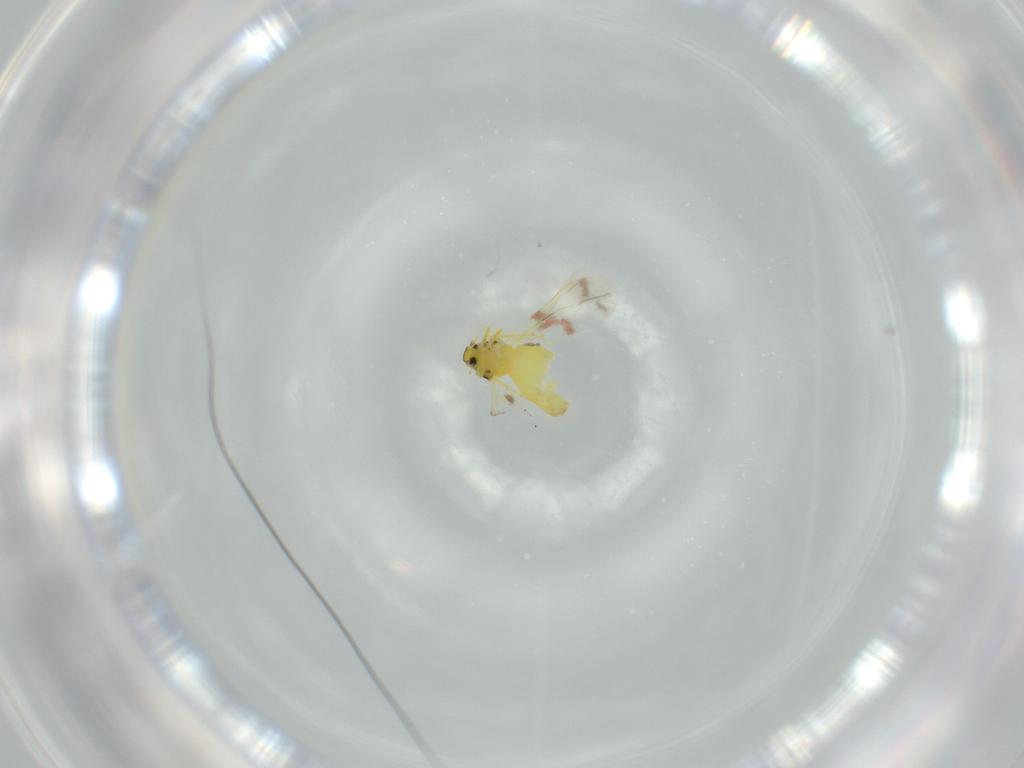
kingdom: Animalia
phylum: Arthropoda
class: Insecta
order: Hemiptera
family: Aleyrodidae
